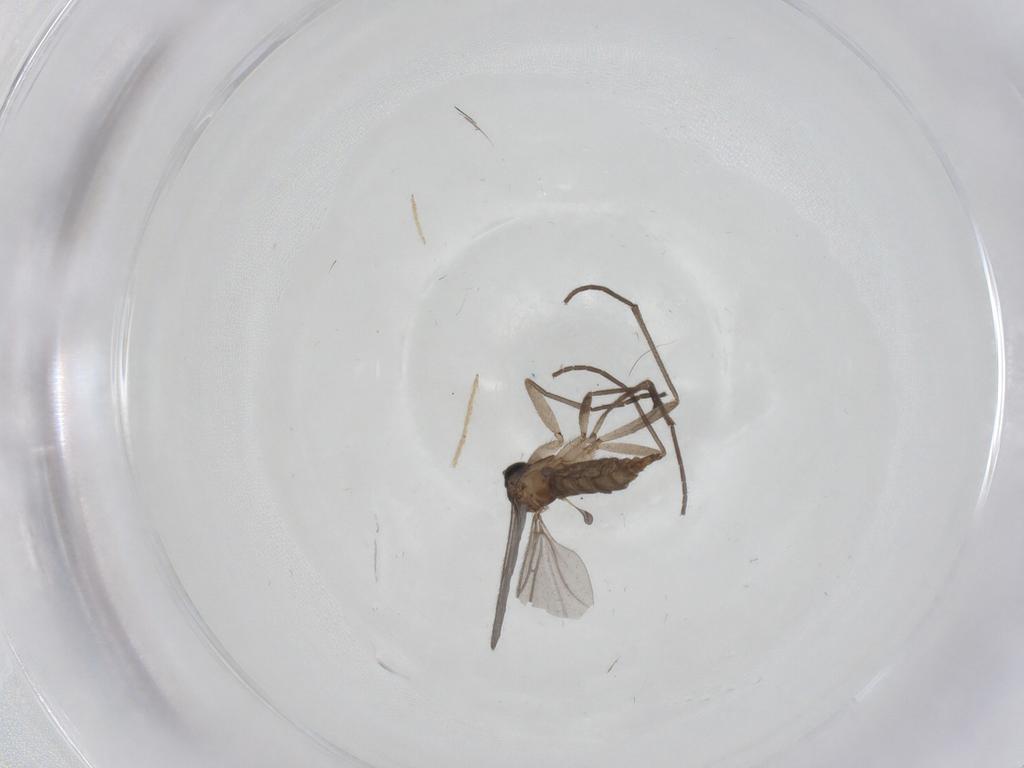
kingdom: Animalia
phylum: Arthropoda
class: Insecta
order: Diptera
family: Sciaridae
